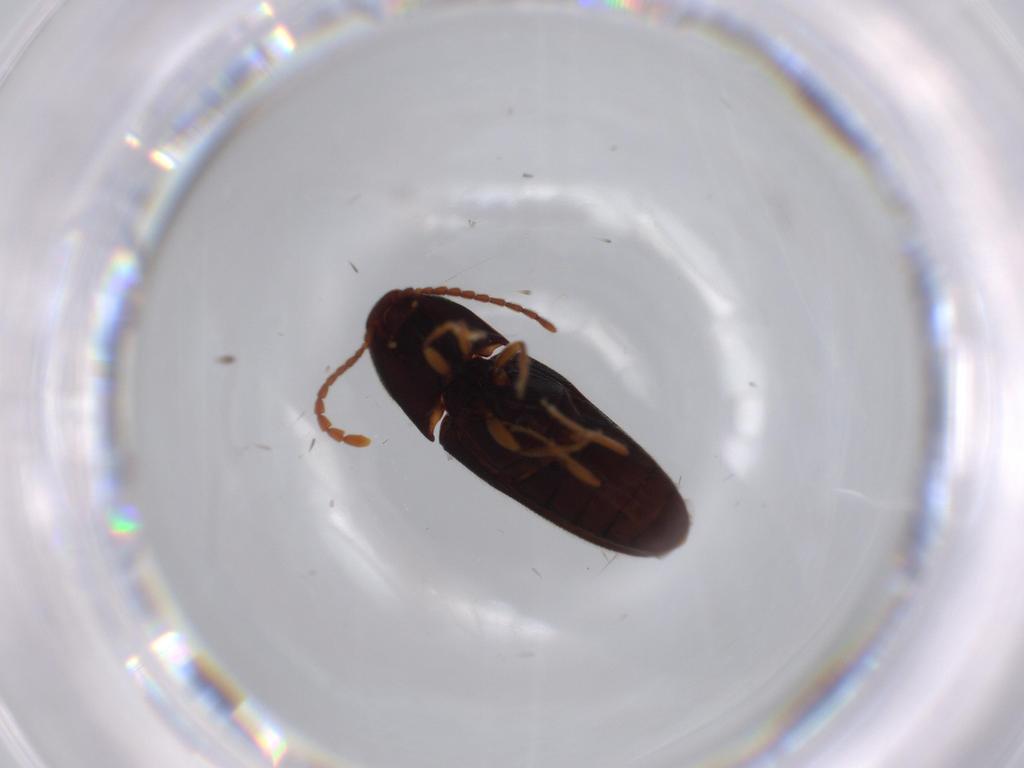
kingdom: Animalia
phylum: Arthropoda
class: Insecta
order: Coleoptera
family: Elateridae
